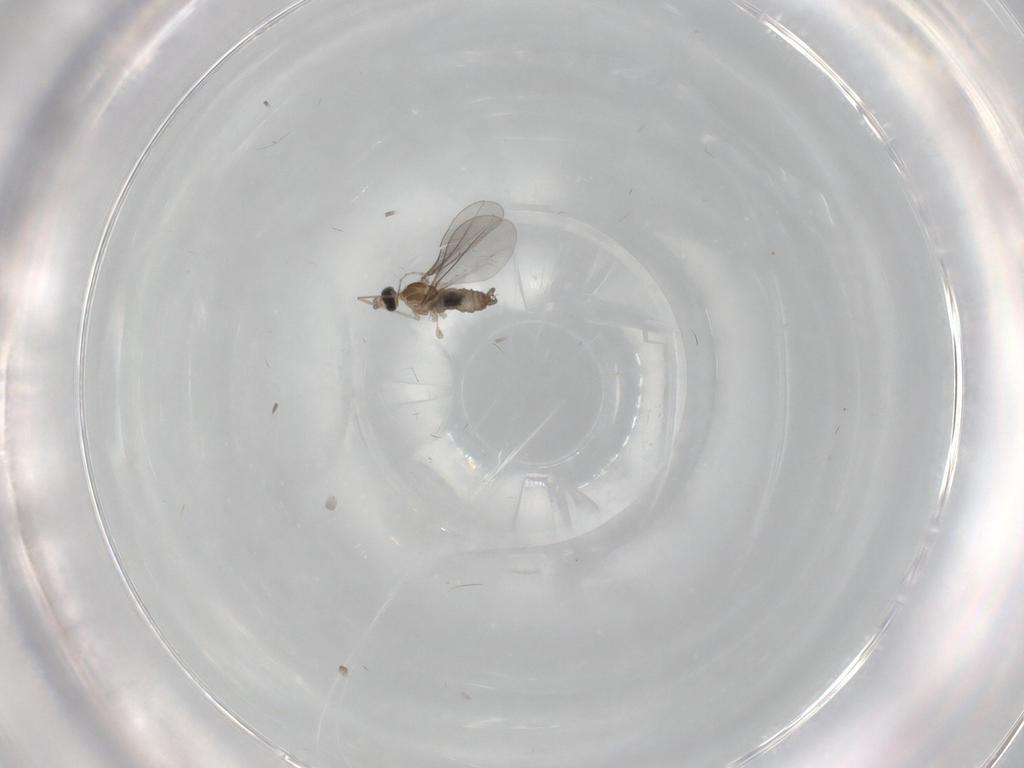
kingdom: Animalia
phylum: Arthropoda
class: Insecta
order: Diptera
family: Cecidomyiidae
